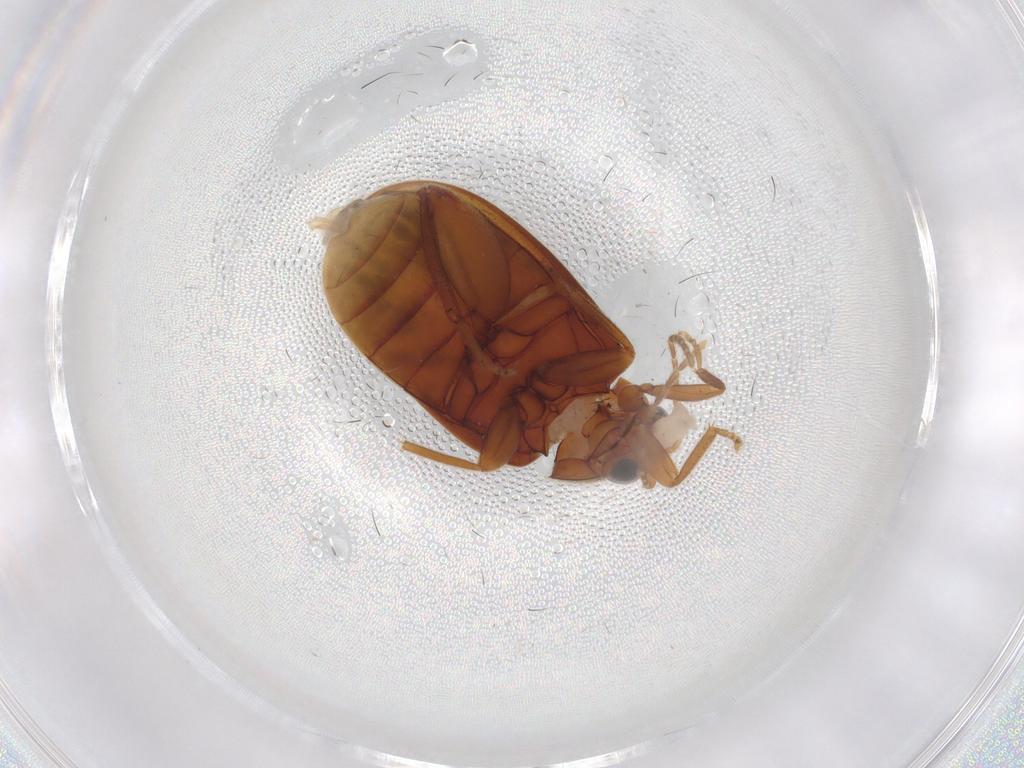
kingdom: Animalia
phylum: Arthropoda
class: Insecta
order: Coleoptera
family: Scirtidae
